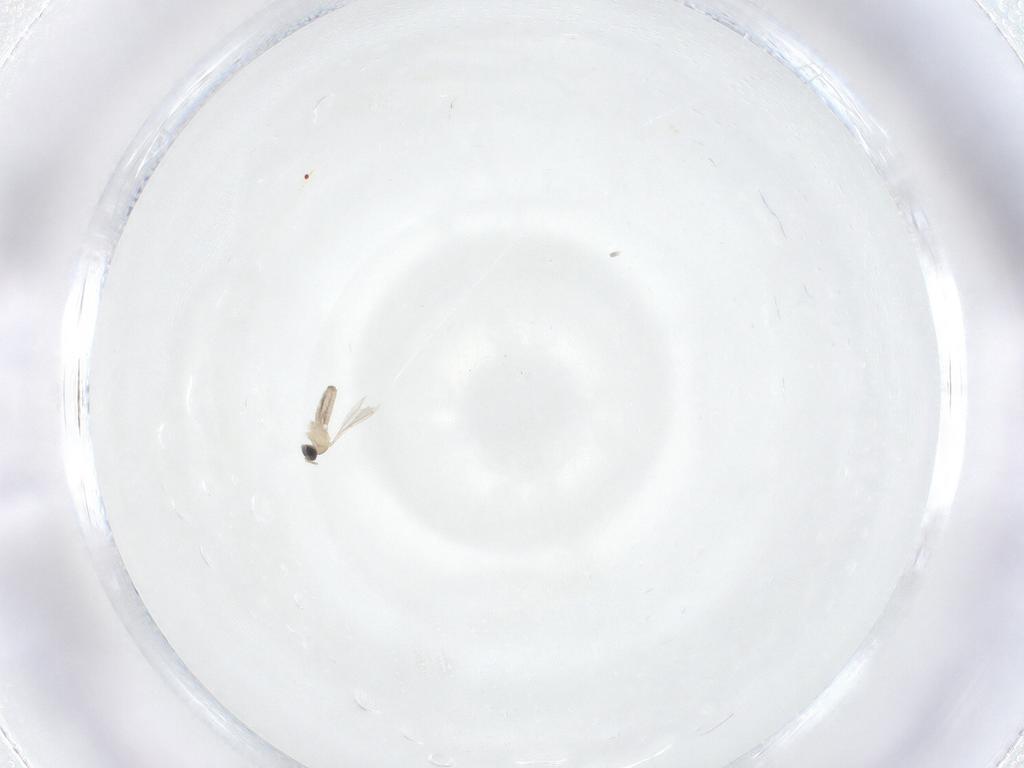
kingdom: Animalia
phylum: Arthropoda
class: Insecta
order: Diptera
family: Cecidomyiidae
